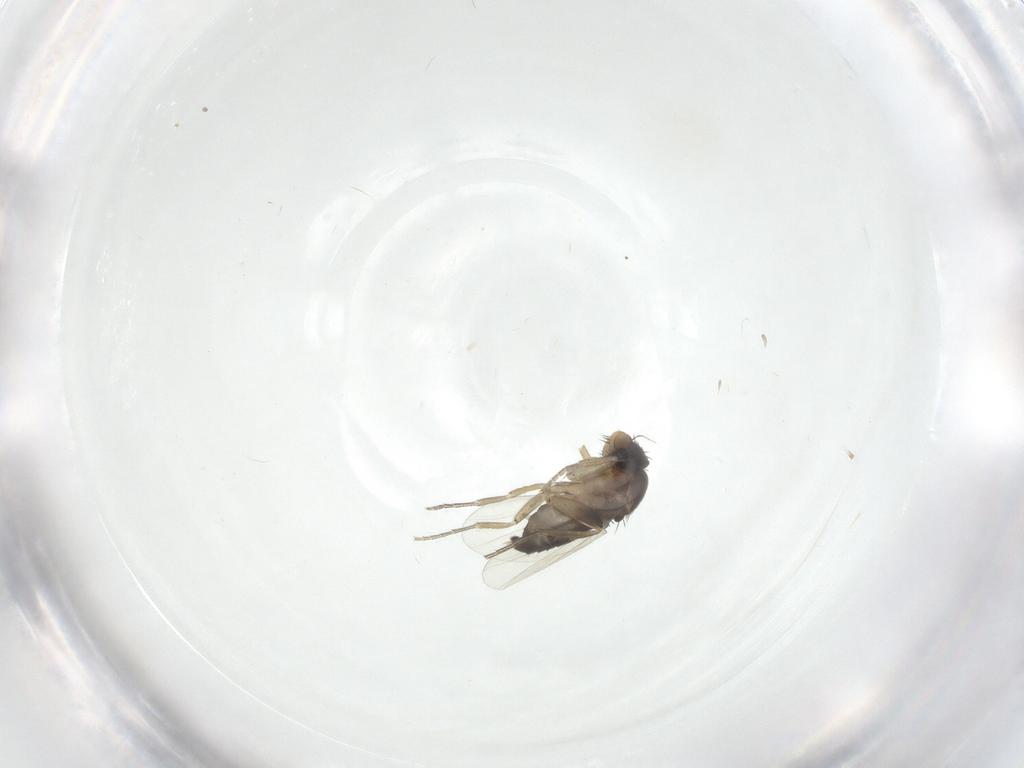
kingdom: Animalia
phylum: Arthropoda
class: Insecta
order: Diptera
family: Phoridae
